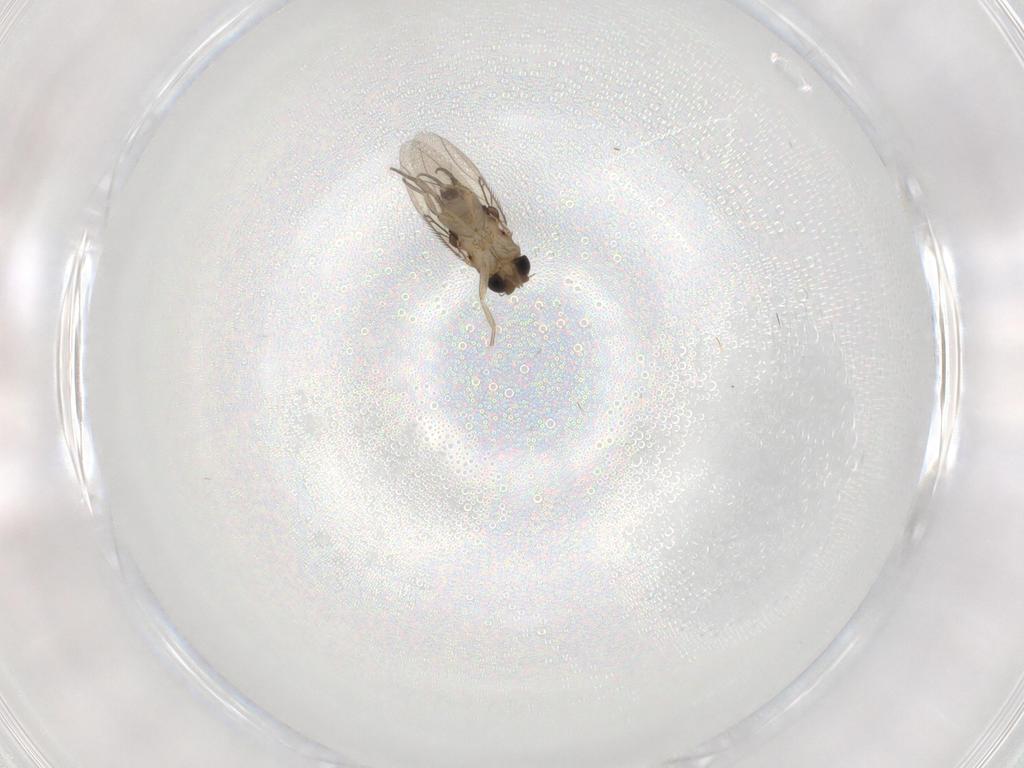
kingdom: Animalia
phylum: Arthropoda
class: Insecta
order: Diptera
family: Phoridae
